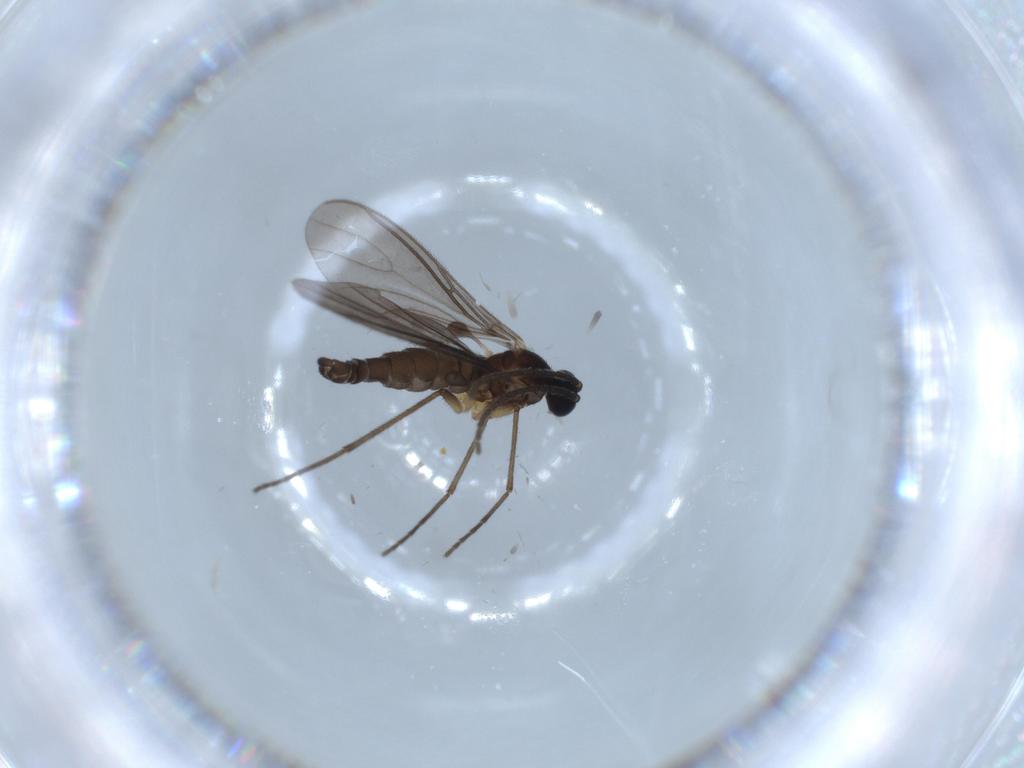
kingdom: Animalia
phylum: Arthropoda
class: Insecta
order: Diptera
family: Sciaridae
